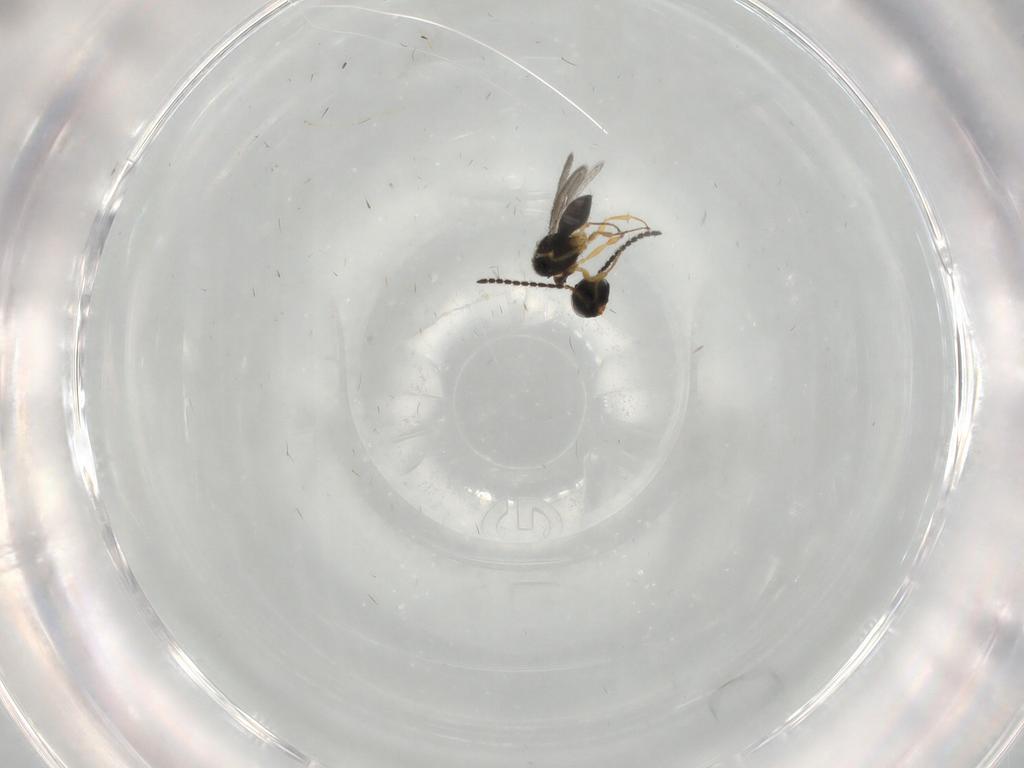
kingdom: Animalia
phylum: Arthropoda
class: Insecta
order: Hymenoptera
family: Scelionidae
